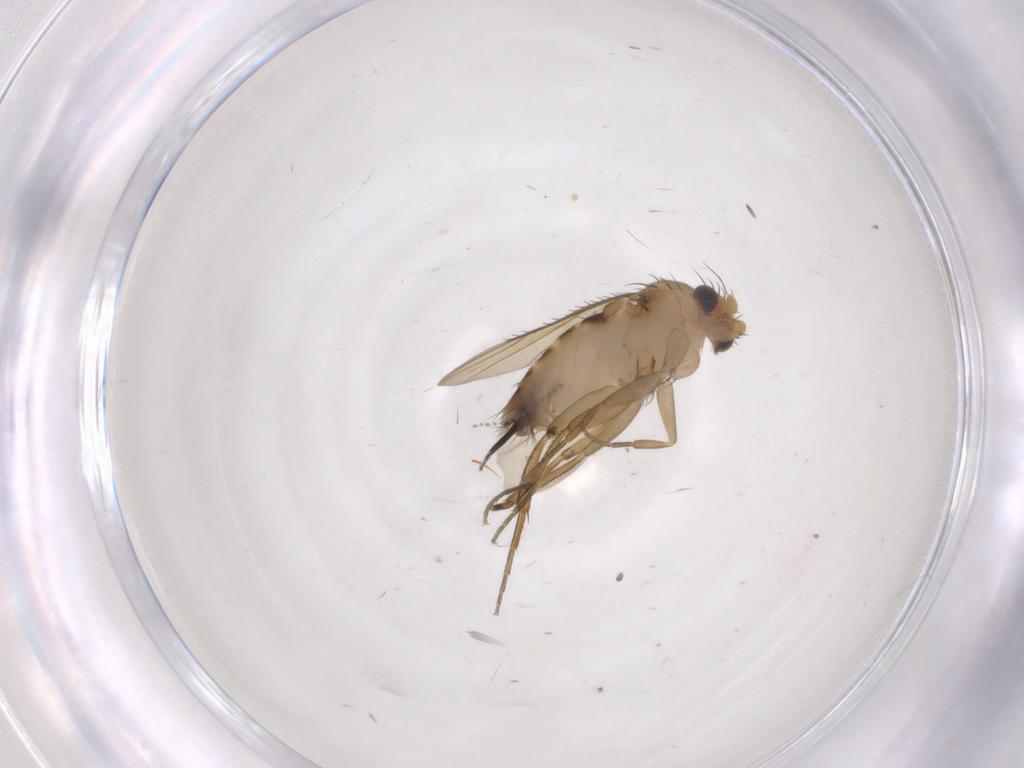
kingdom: Animalia
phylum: Arthropoda
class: Insecta
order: Diptera
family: Phoridae
